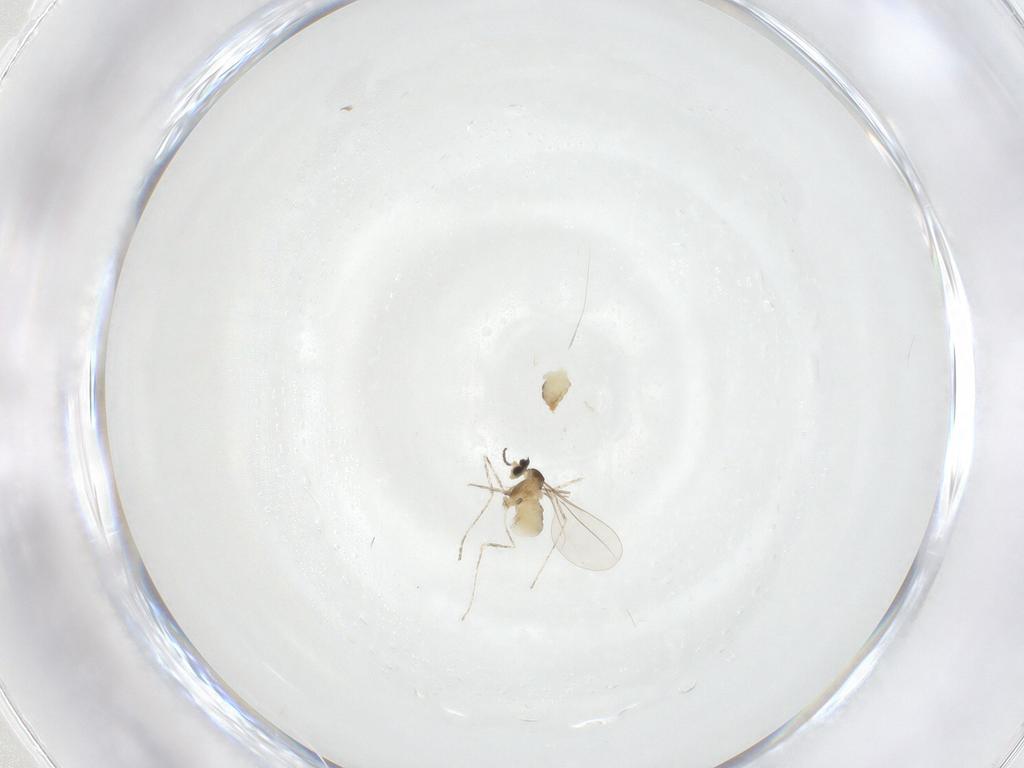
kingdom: Animalia
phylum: Arthropoda
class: Insecta
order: Diptera
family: Cecidomyiidae
